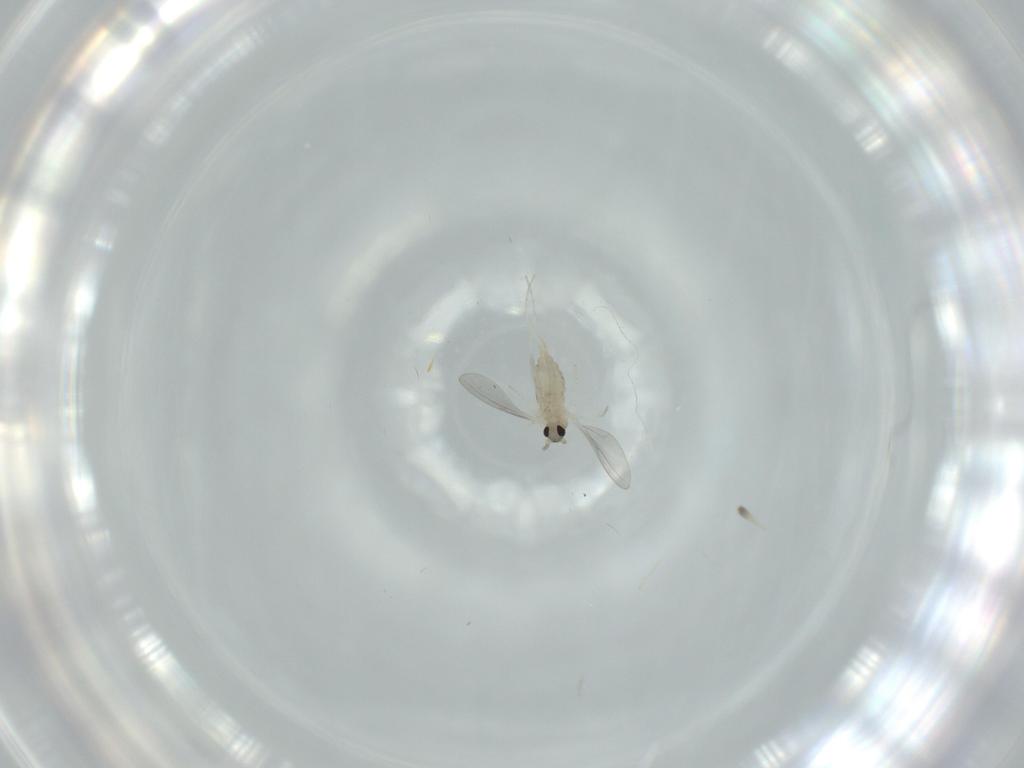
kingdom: Animalia
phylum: Arthropoda
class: Insecta
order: Diptera
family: Cecidomyiidae
